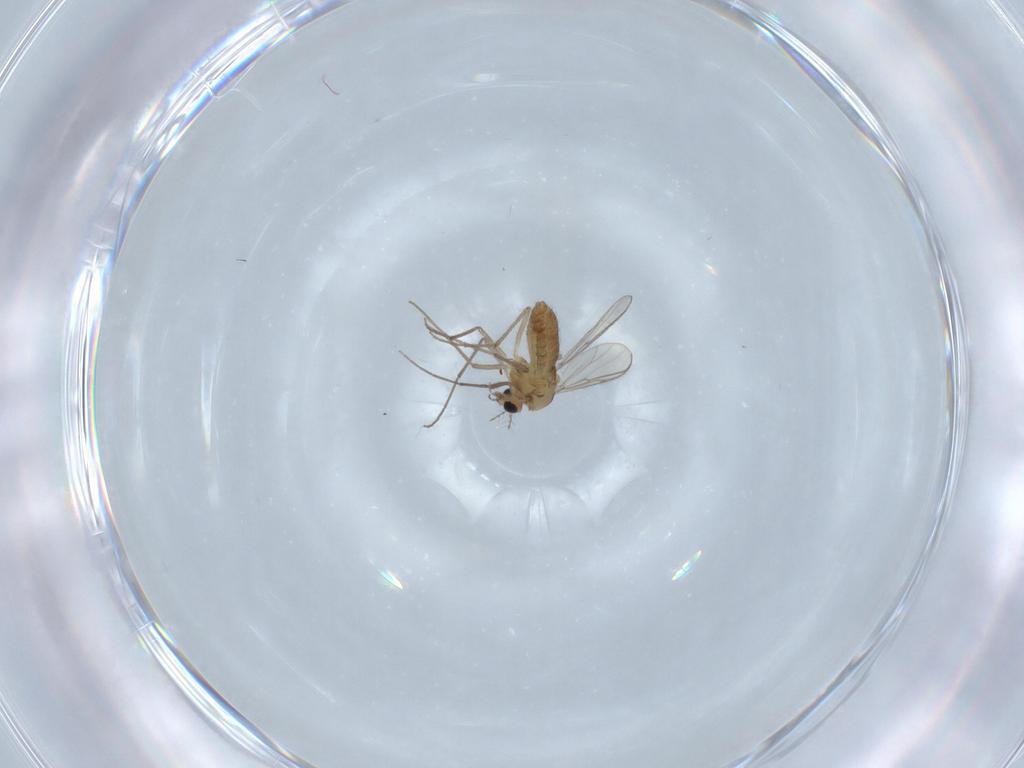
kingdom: Animalia
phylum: Arthropoda
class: Insecta
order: Diptera
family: Chironomidae
